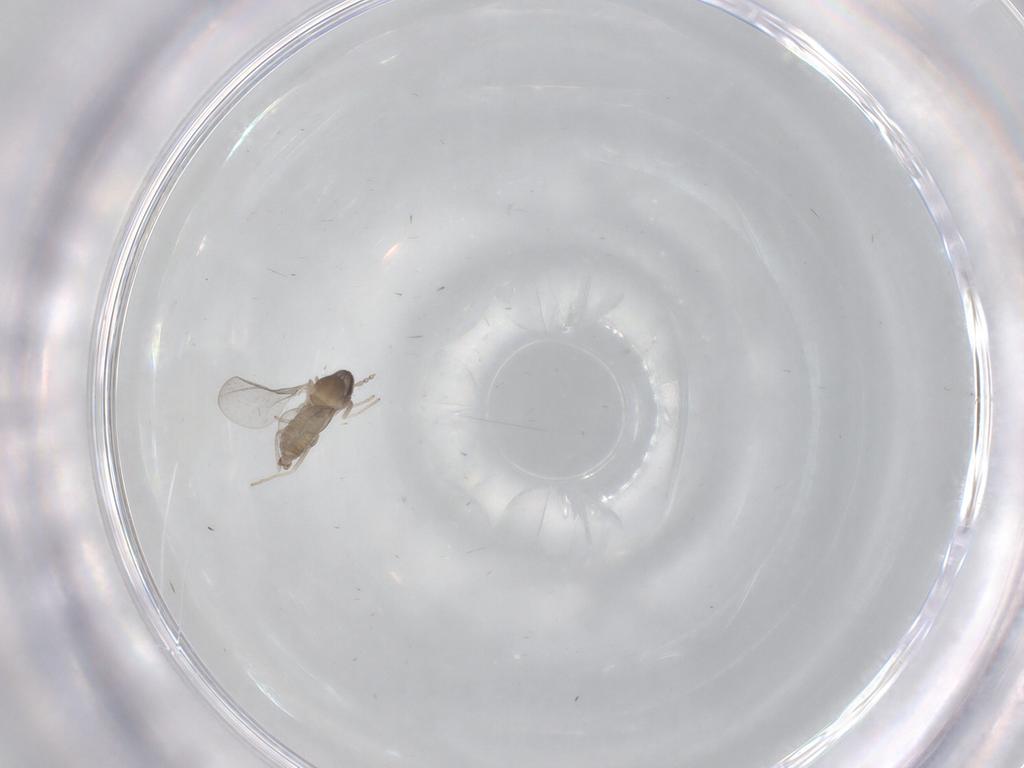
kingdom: Animalia
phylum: Arthropoda
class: Insecta
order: Diptera
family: Cecidomyiidae
